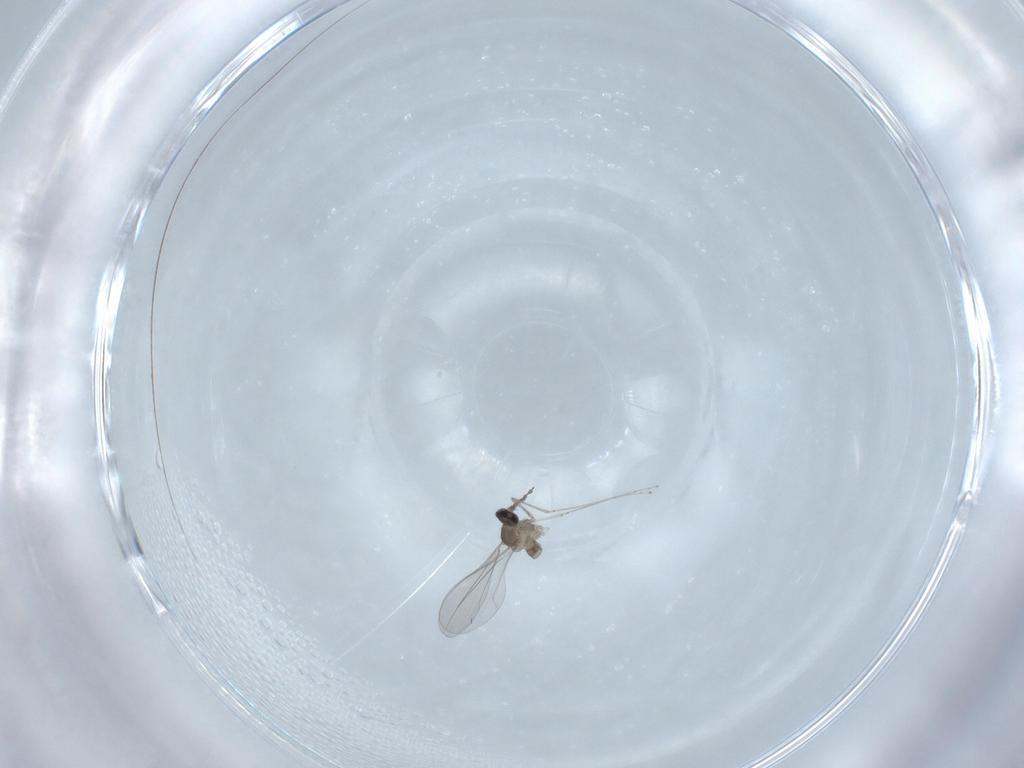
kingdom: Animalia
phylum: Arthropoda
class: Insecta
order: Diptera
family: Cecidomyiidae
